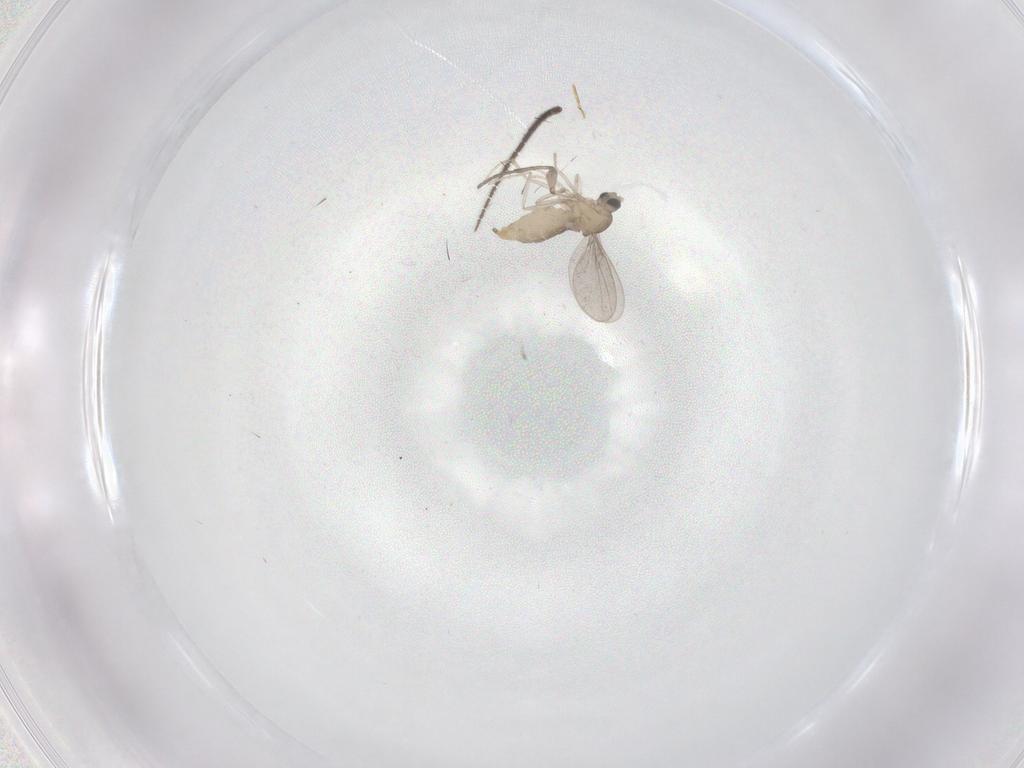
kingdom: Animalia
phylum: Arthropoda
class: Insecta
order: Diptera
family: Sciaridae
